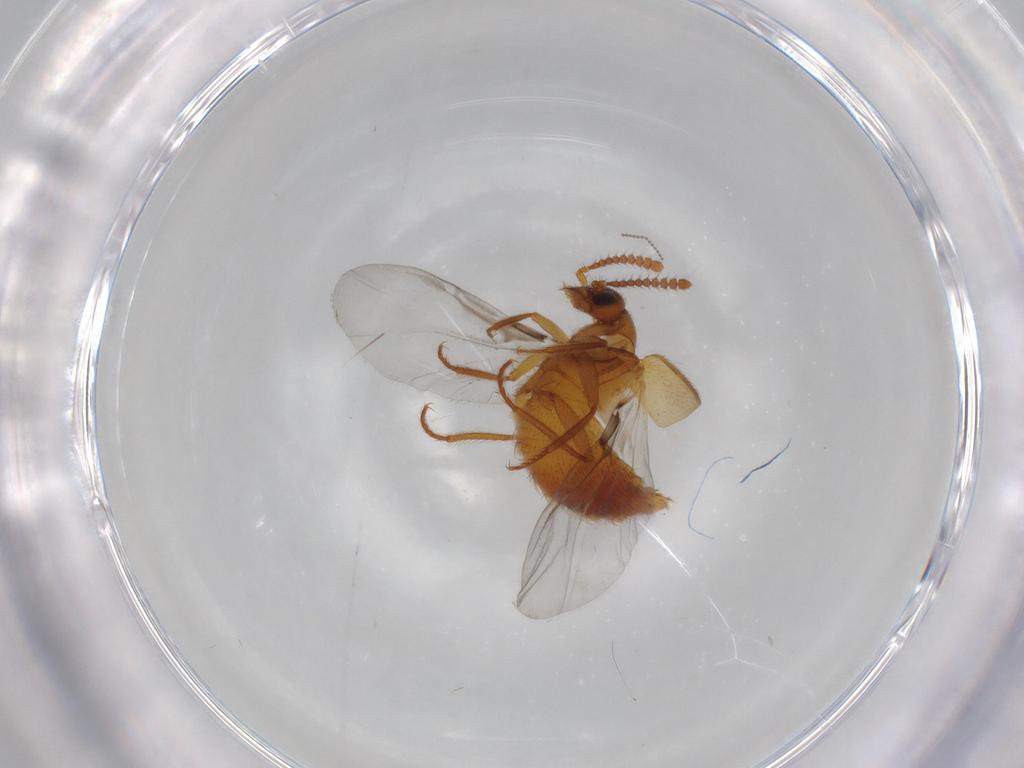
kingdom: Animalia
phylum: Arthropoda
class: Insecta
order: Coleoptera
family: Staphylinidae
